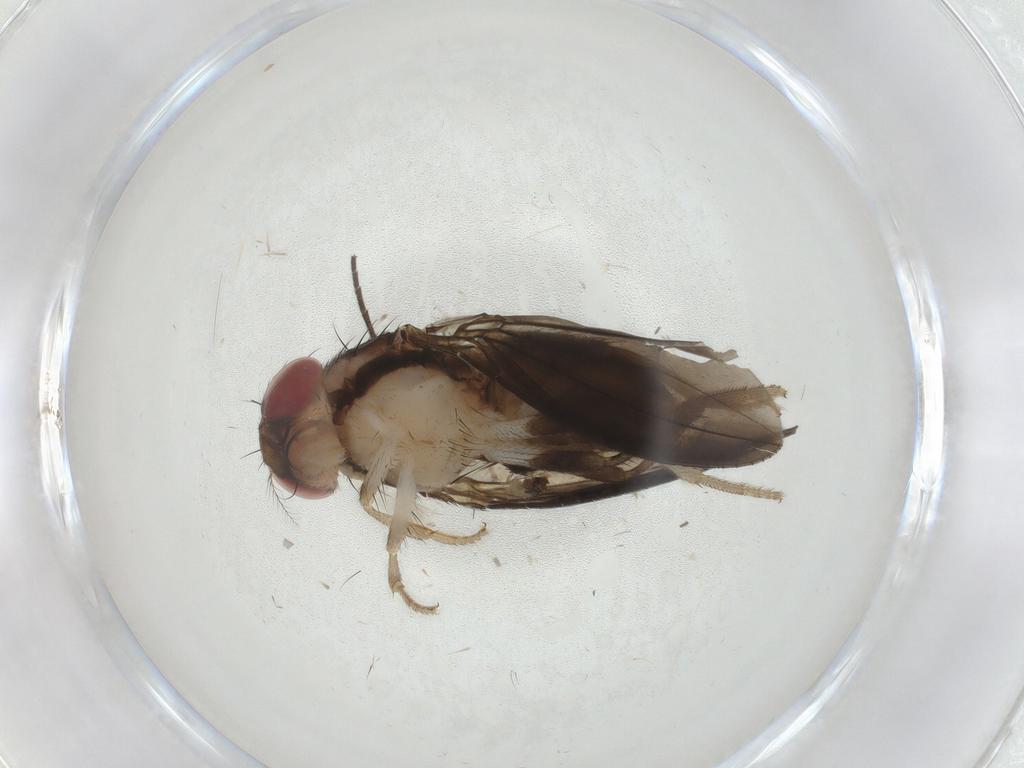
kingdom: Animalia
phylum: Arthropoda
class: Insecta
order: Diptera
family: Drosophilidae
